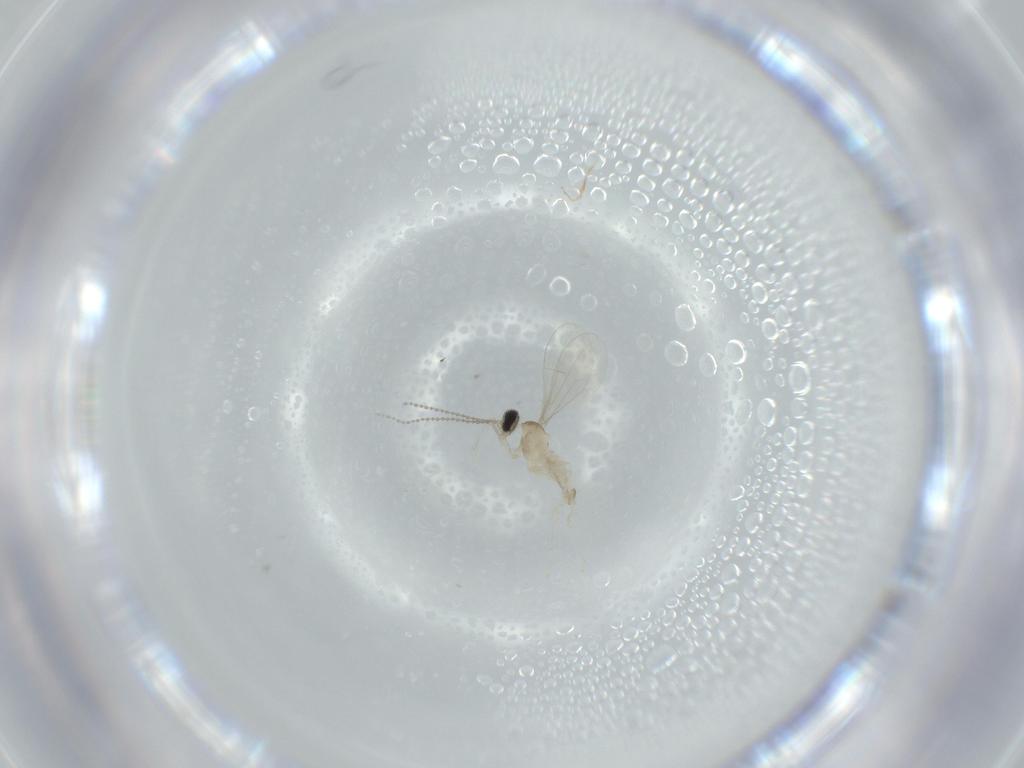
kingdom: Animalia
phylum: Arthropoda
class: Insecta
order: Diptera
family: Cecidomyiidae
